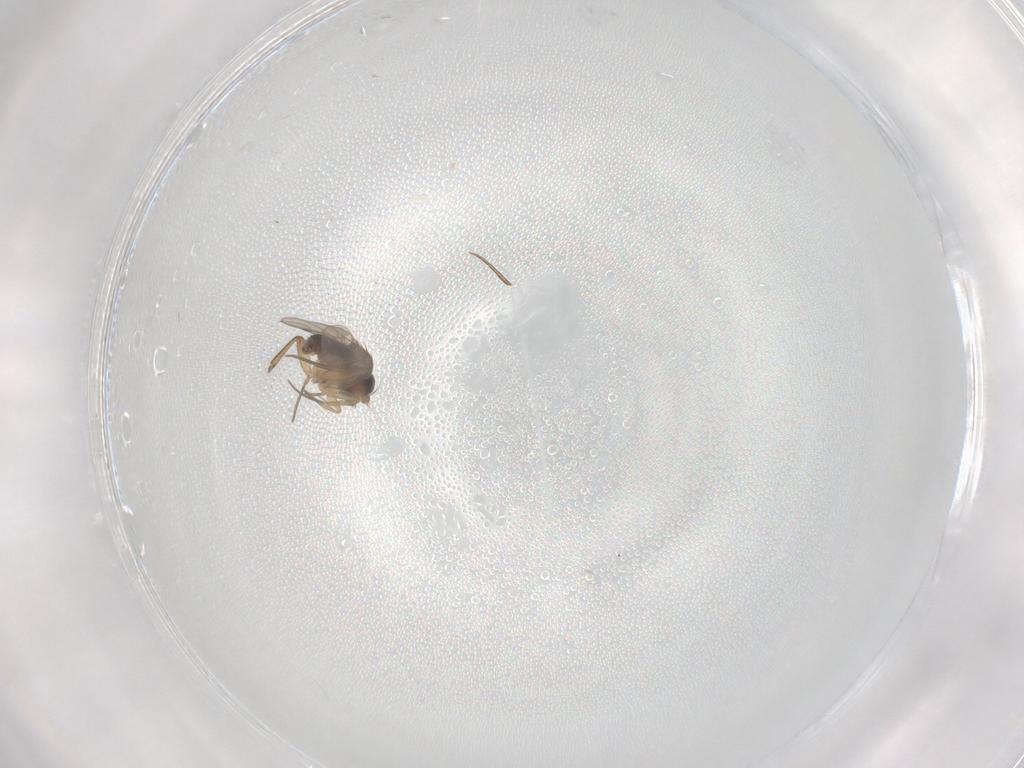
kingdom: Animalia
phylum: Arthropoda
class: Insecta
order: Diptera
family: Phoridae
